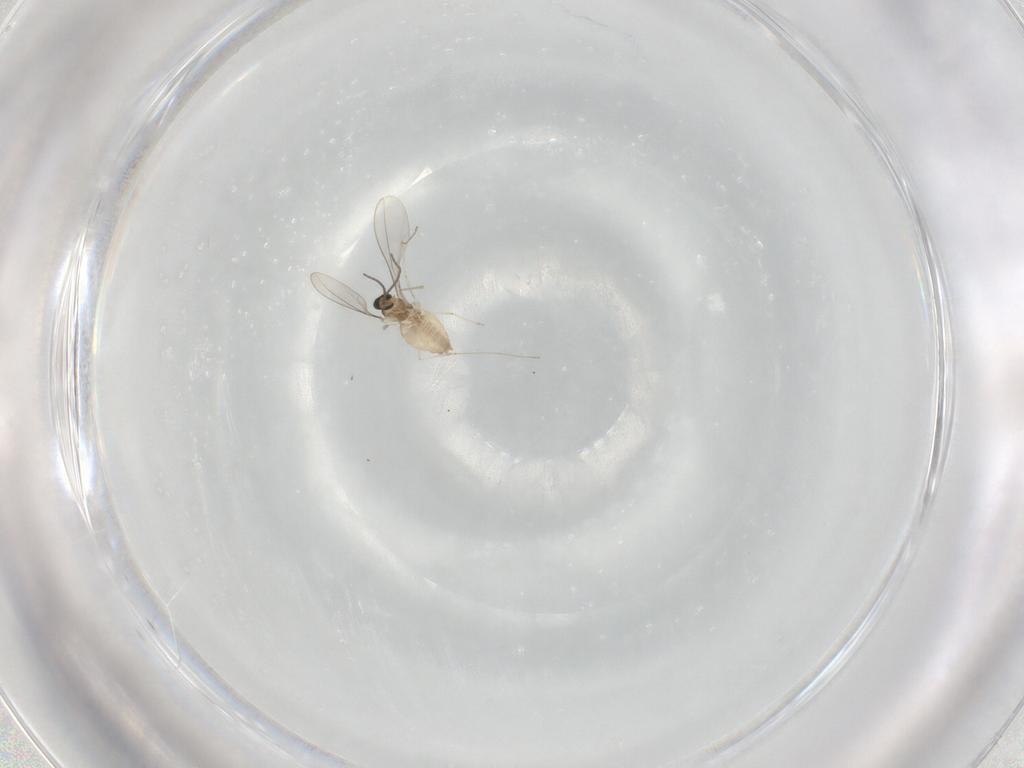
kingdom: Animalia
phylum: Arthropoda
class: Insecta
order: Diptera
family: Cecidomyiidae
